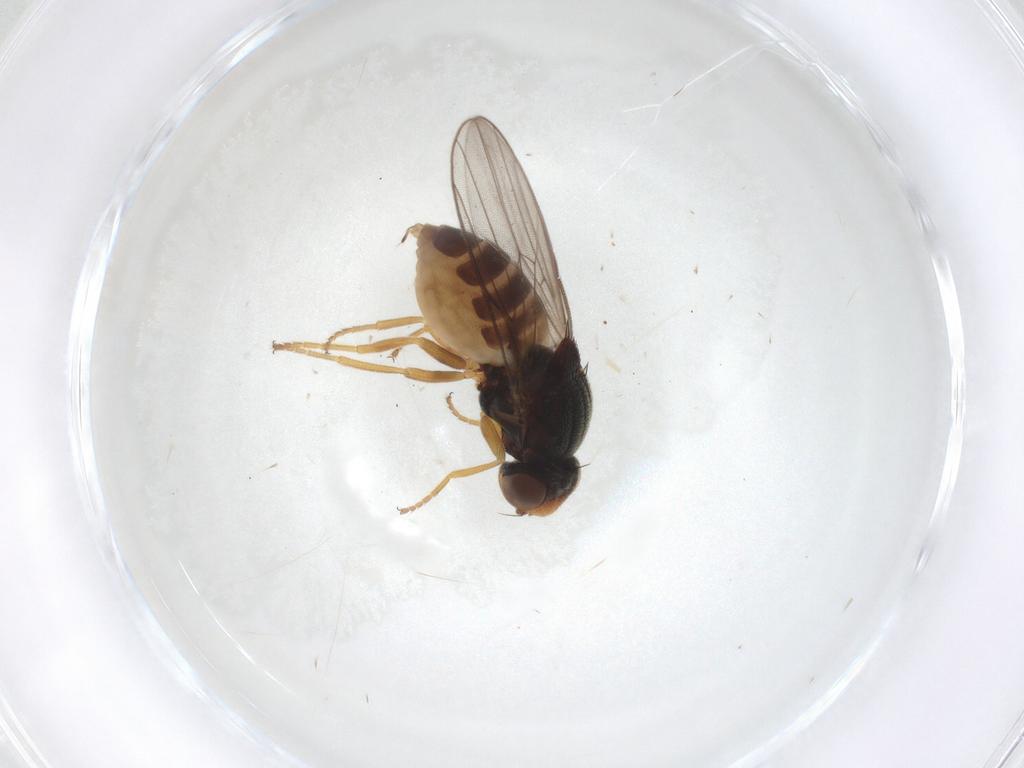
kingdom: Animalia
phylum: Arthropoda
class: Insecta
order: Diptera
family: Chloropidae
